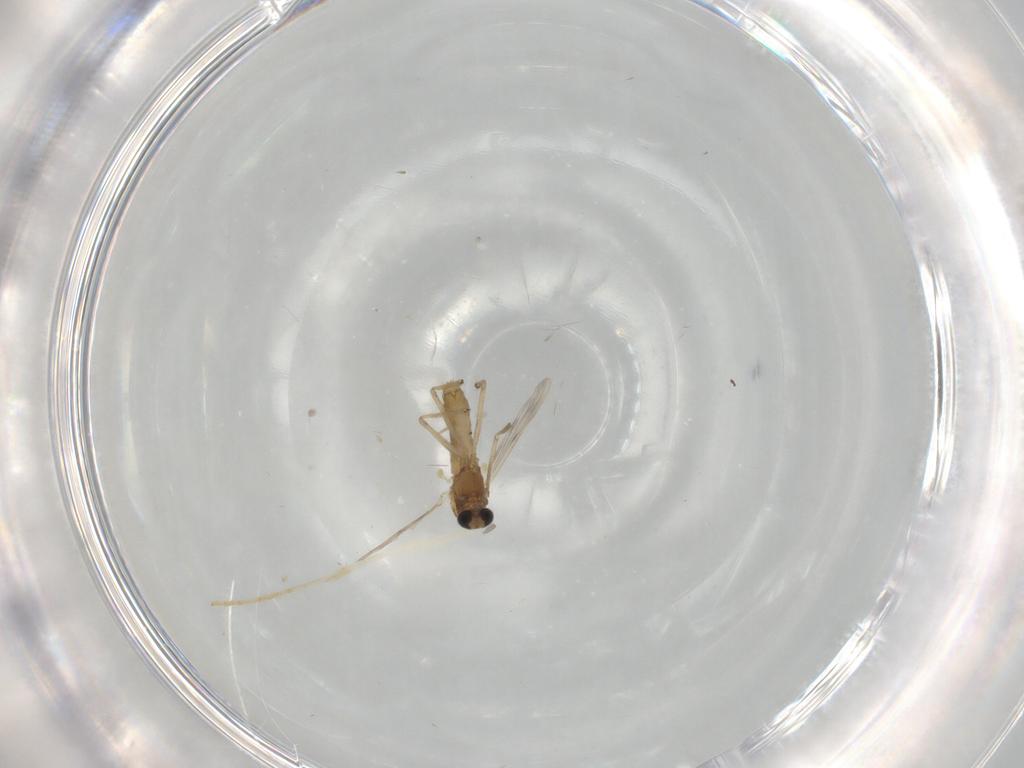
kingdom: Animalia
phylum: Arthropoda
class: Insecta
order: Diptera
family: Chironomidae
